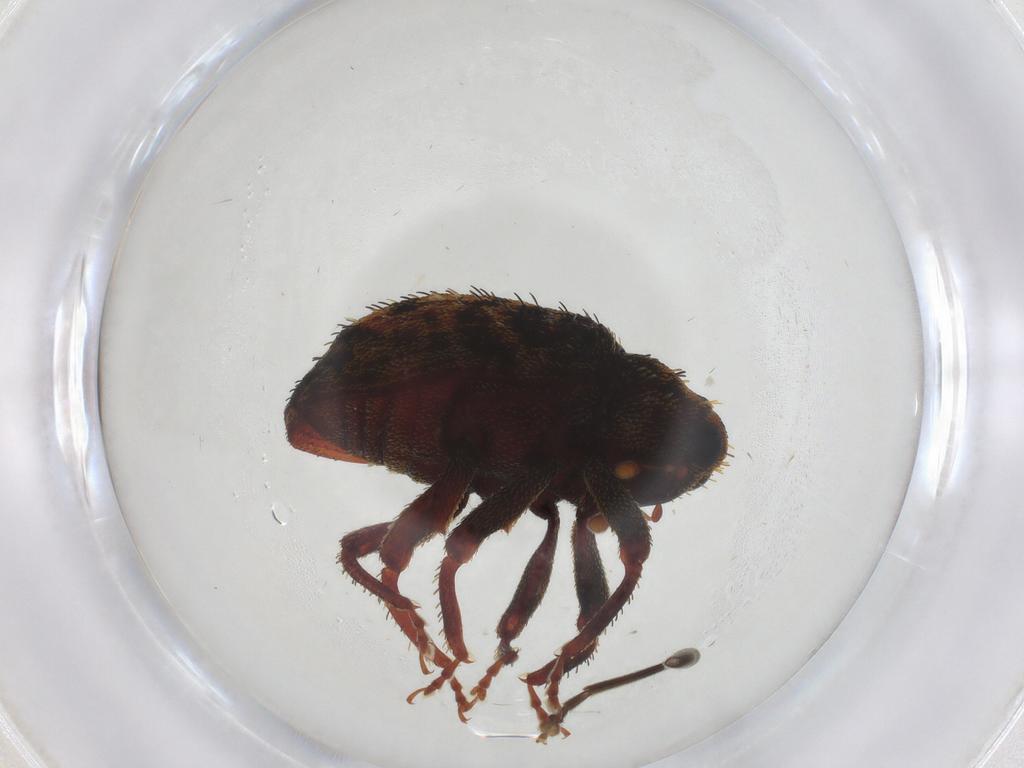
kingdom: Animalia
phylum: Arthropoda
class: Insecta
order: Coleoptera
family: Cantharidae
